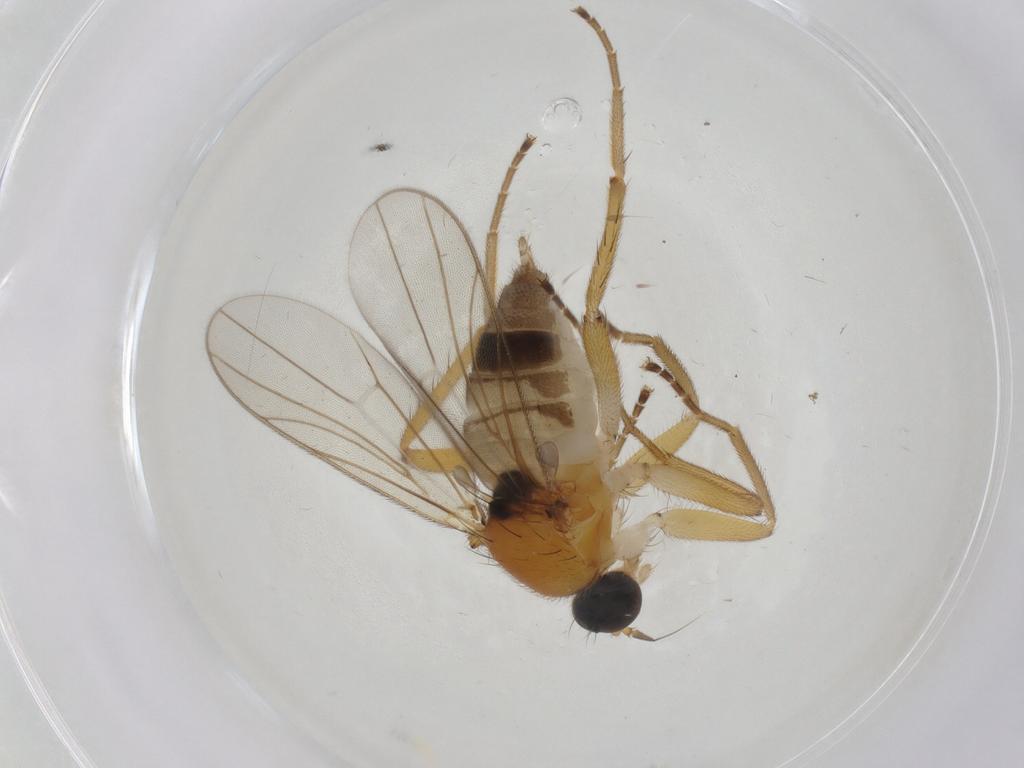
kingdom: Animalia
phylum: Arthropoda
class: Insecta
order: Diptera
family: Hybotidae
